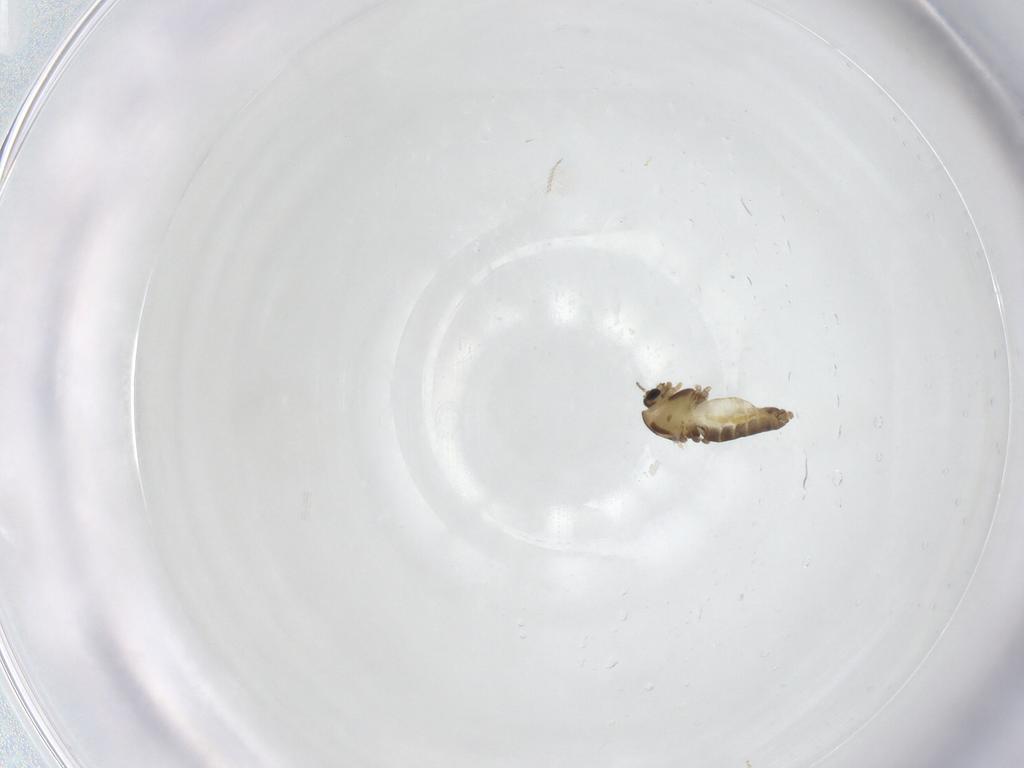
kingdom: Animalia
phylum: Arthropoda
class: Insecta
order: Diptera
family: Chironomidae
